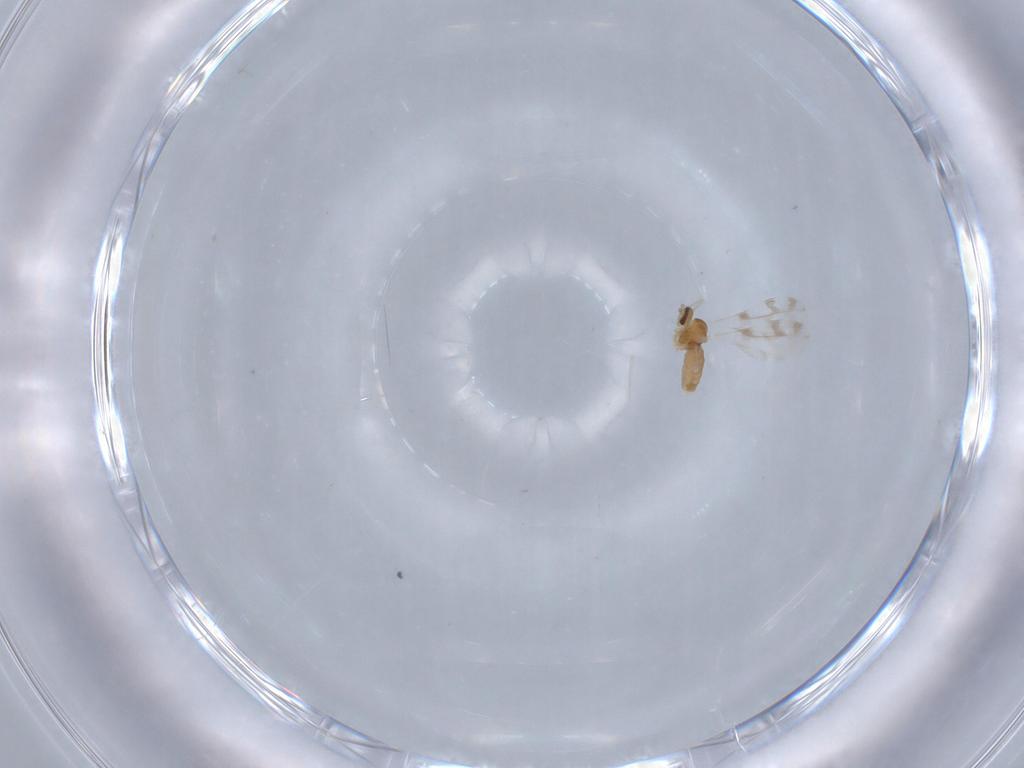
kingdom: Animalia
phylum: Arthropoda
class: Insecta
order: Diptera
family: Cecidomyiidae
